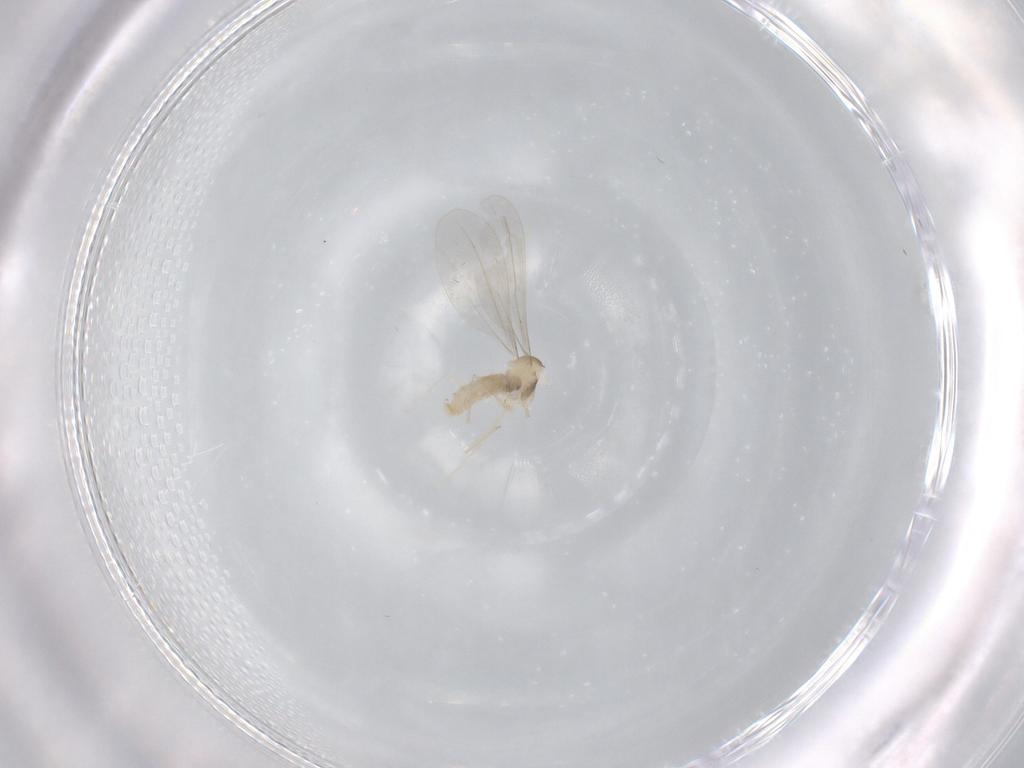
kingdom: Animalia
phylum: Arthropoda
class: Insecta
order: Diptera
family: Cecidomyiidae
